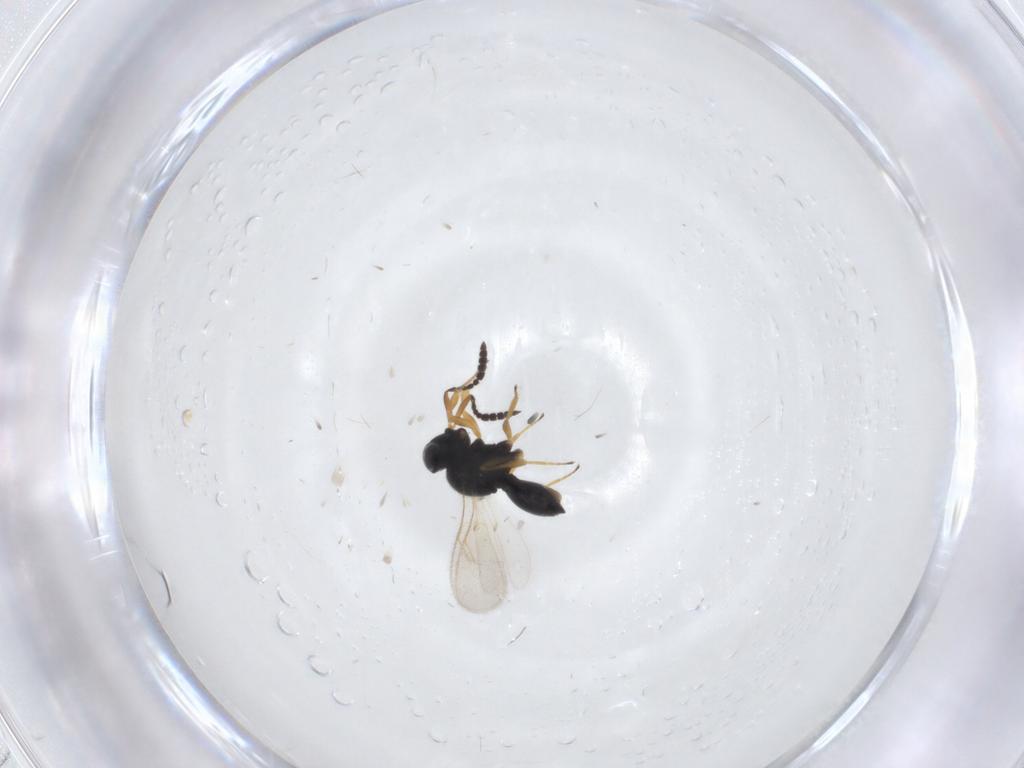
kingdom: Animalia
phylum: Arthropoda
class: Insecta
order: Hymenoptera
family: Scelionidae
